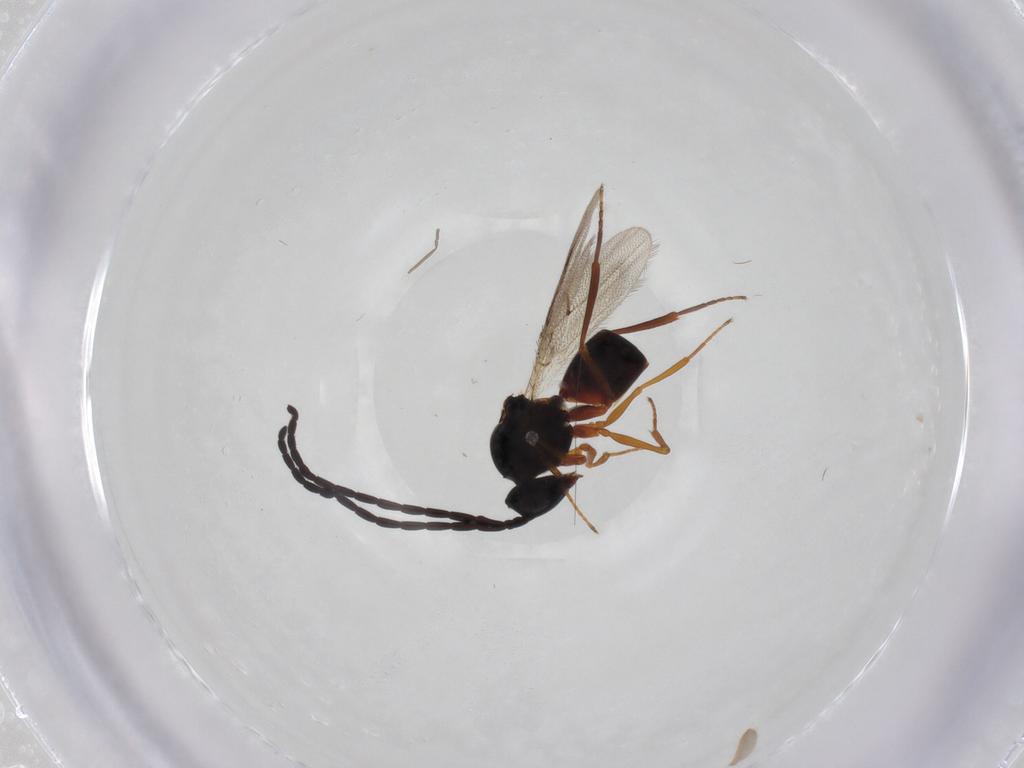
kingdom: Animalia
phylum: Arthropoda
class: Insecta
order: Hymenoptera
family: Figitidae
